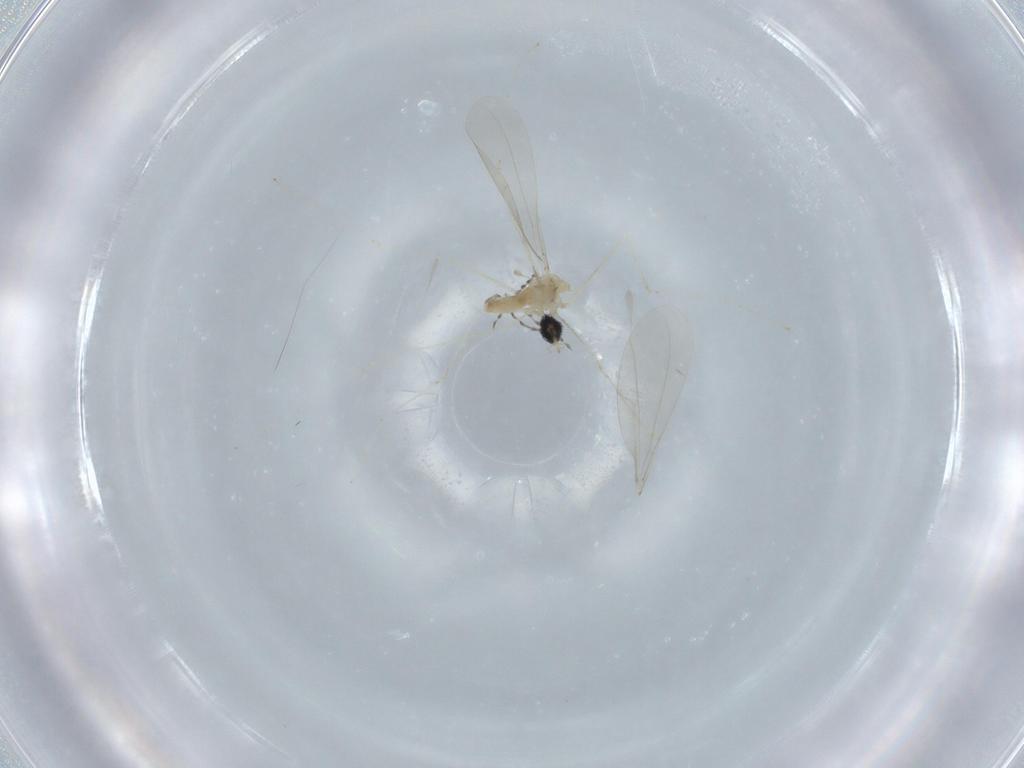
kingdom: Animalia
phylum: Arthropoda
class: Insecta
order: Diptera
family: Cecidomyiidae
